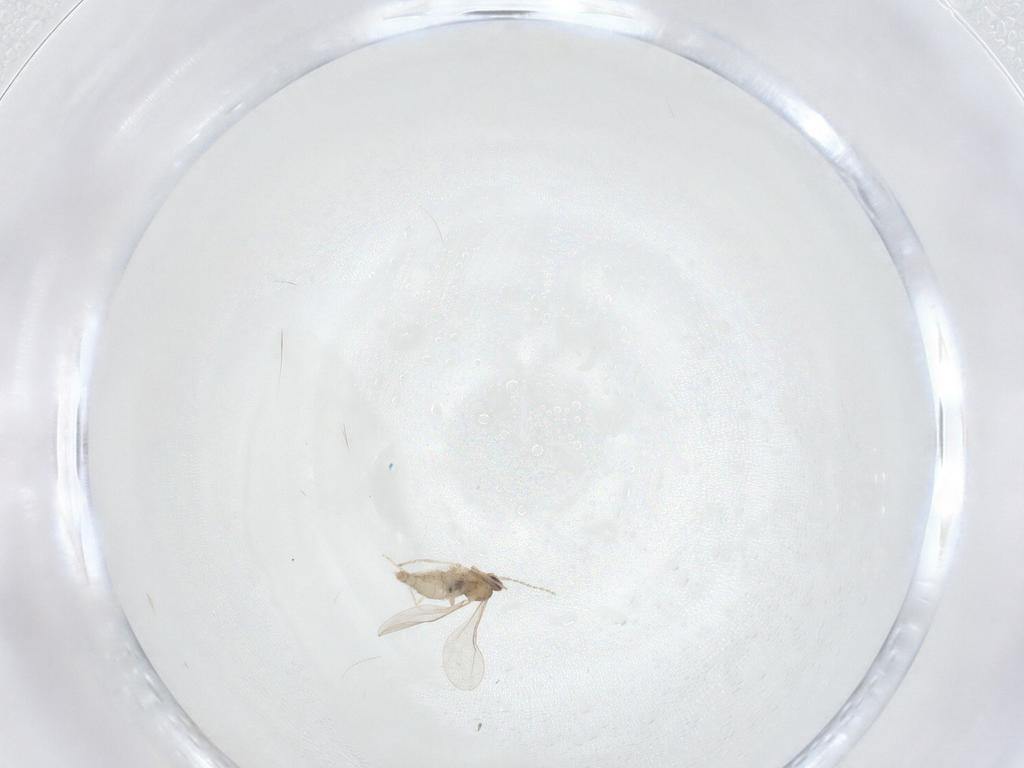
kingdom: Animalia
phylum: Arthropoda
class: Insecta
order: Diptera
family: Cecidomyiidae
